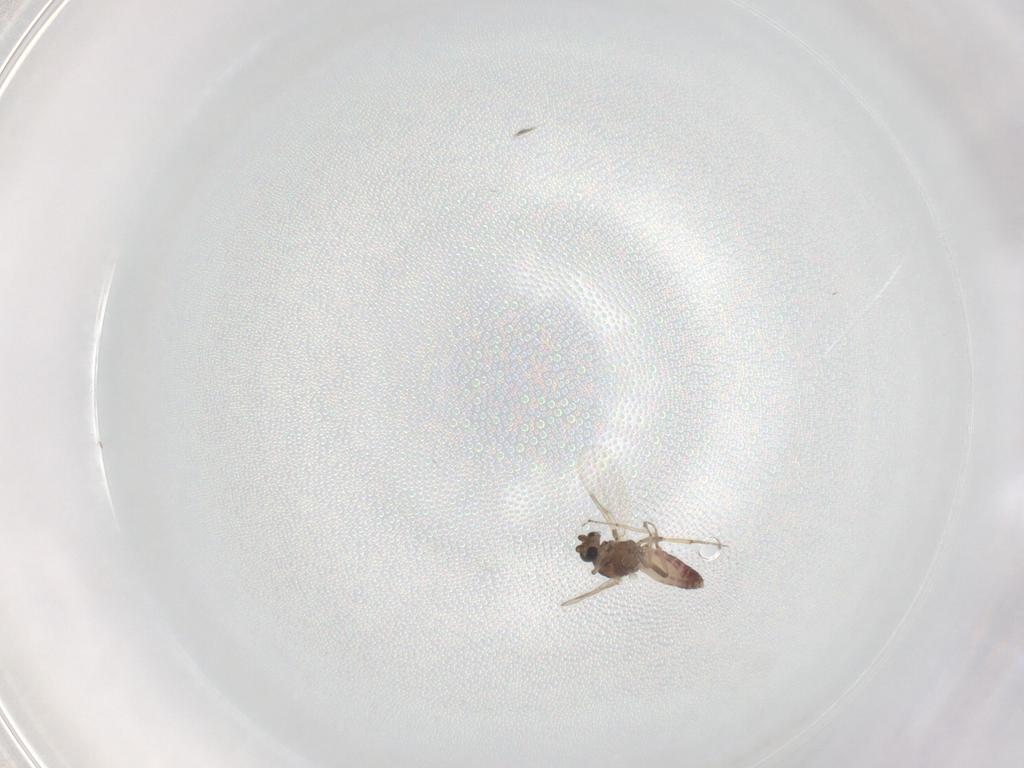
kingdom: Animalia
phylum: Arthropoda
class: Insecta
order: Diptera
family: Ceratopogonidae
